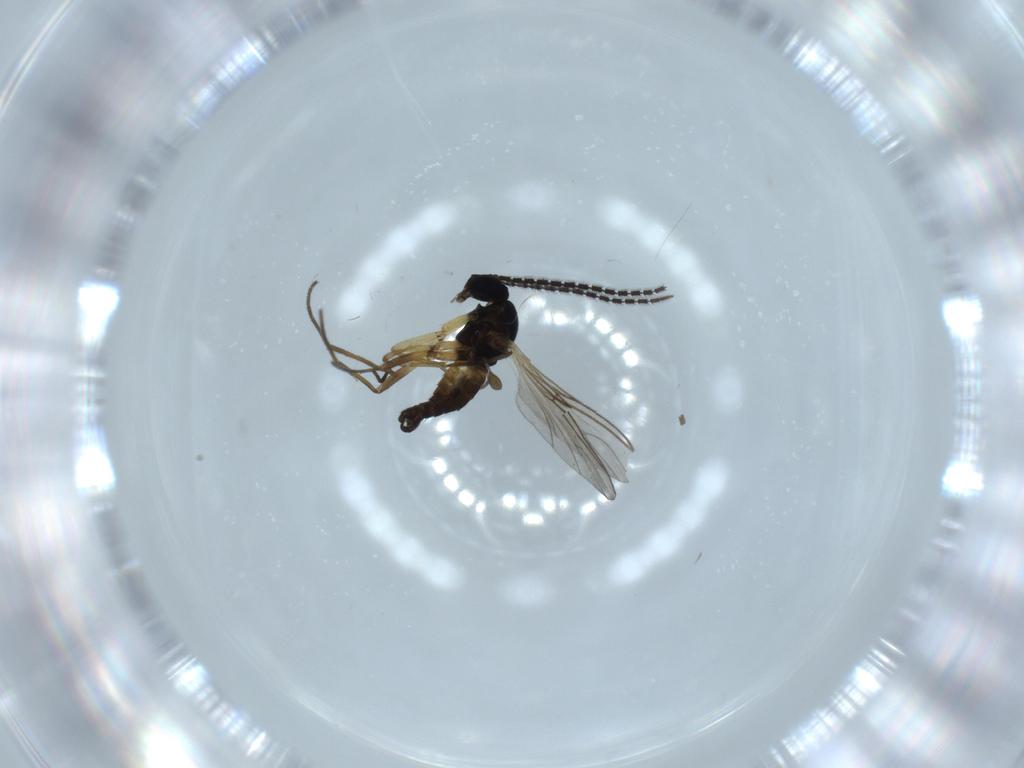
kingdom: Animalia
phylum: Arthropoda
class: Insecta
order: Diptera
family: Sciaridae
